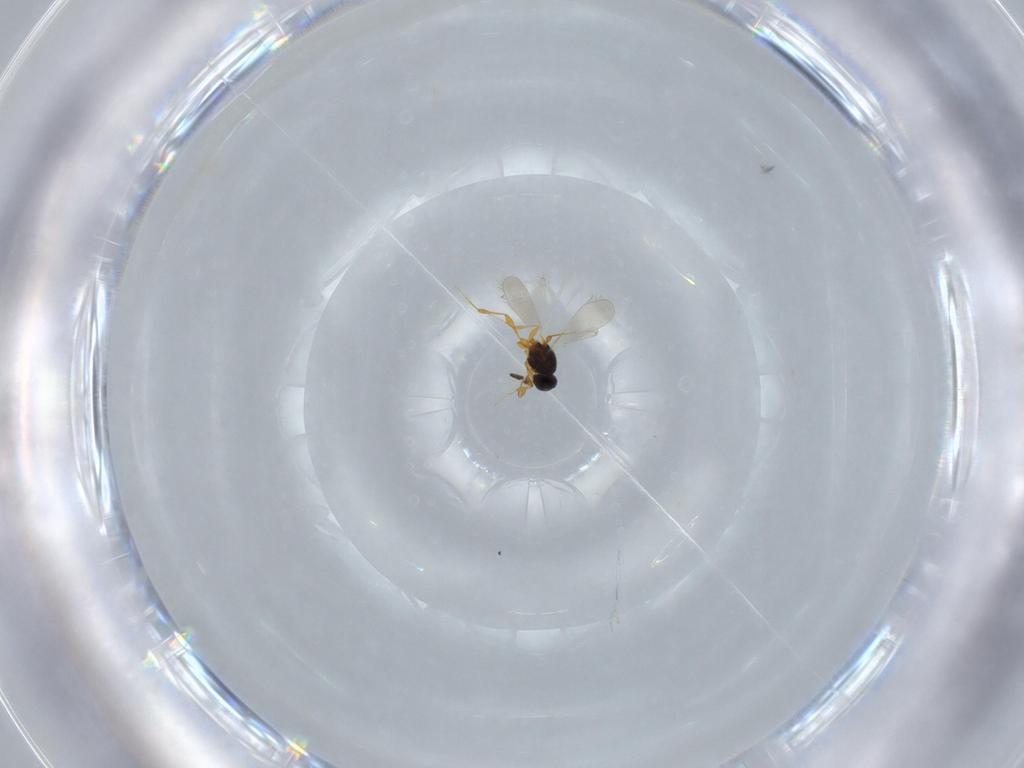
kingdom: Animalia
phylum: Arthropoda
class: Insecta
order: Hymenoptera
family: Platygastridae
